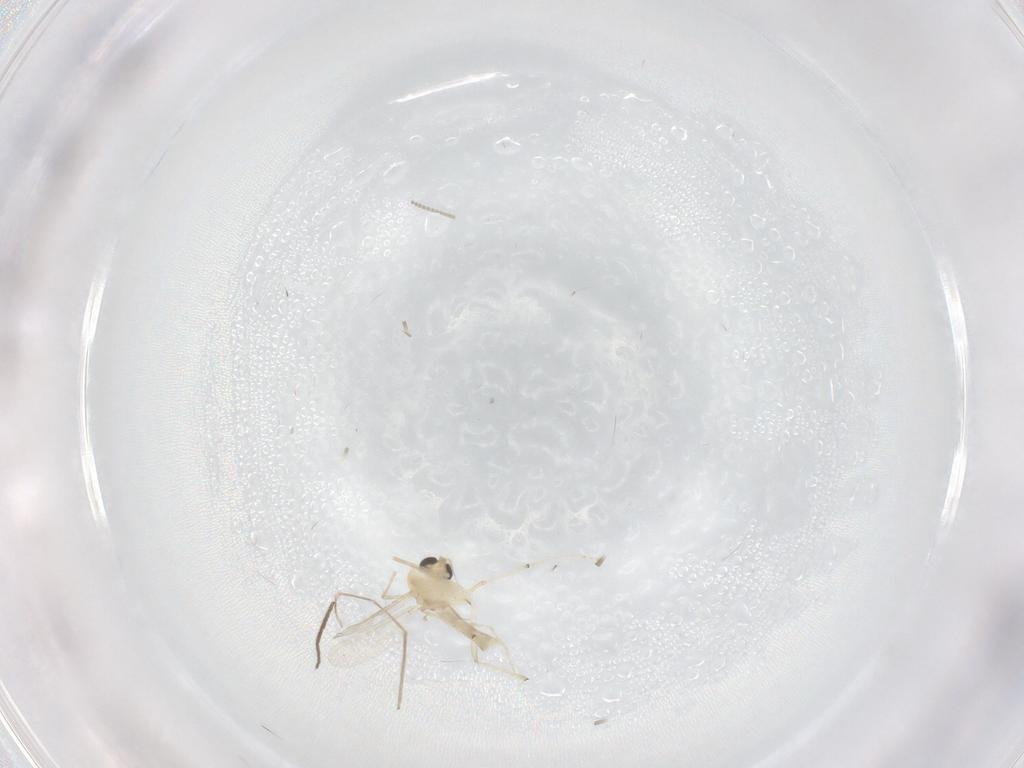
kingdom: Animalia
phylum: Arthropoda
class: Insecta
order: Diptera
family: Chironomidae
